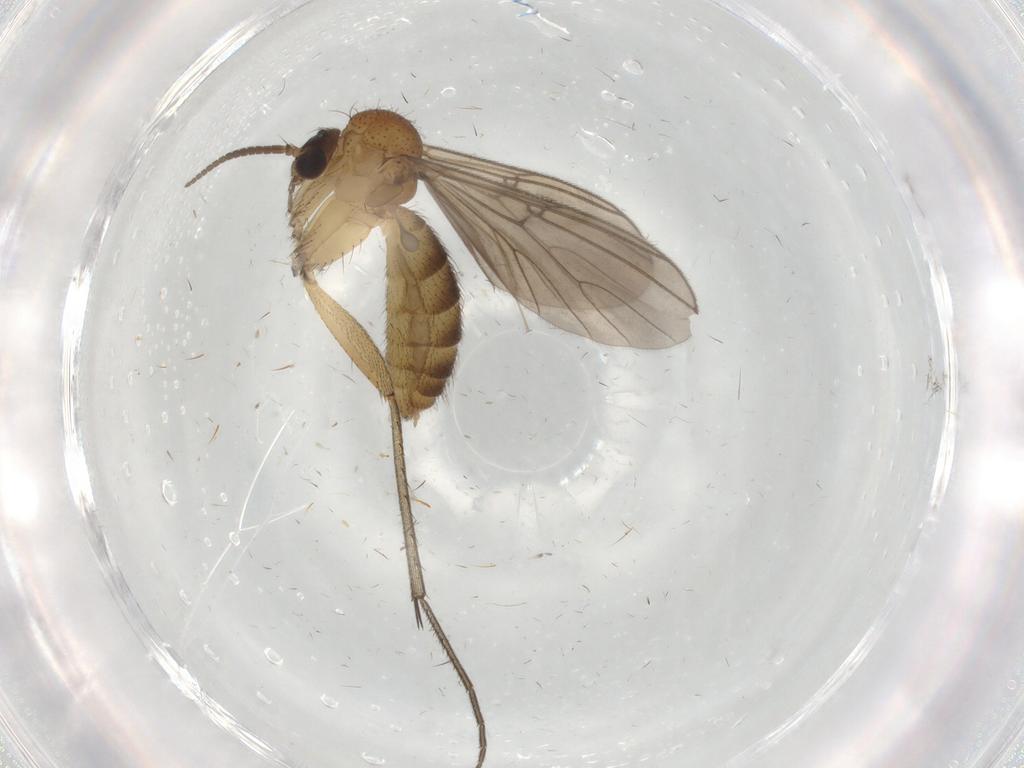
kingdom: Animalia
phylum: Arthropoda
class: Insecta
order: Diptera
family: Mycetophilidae
